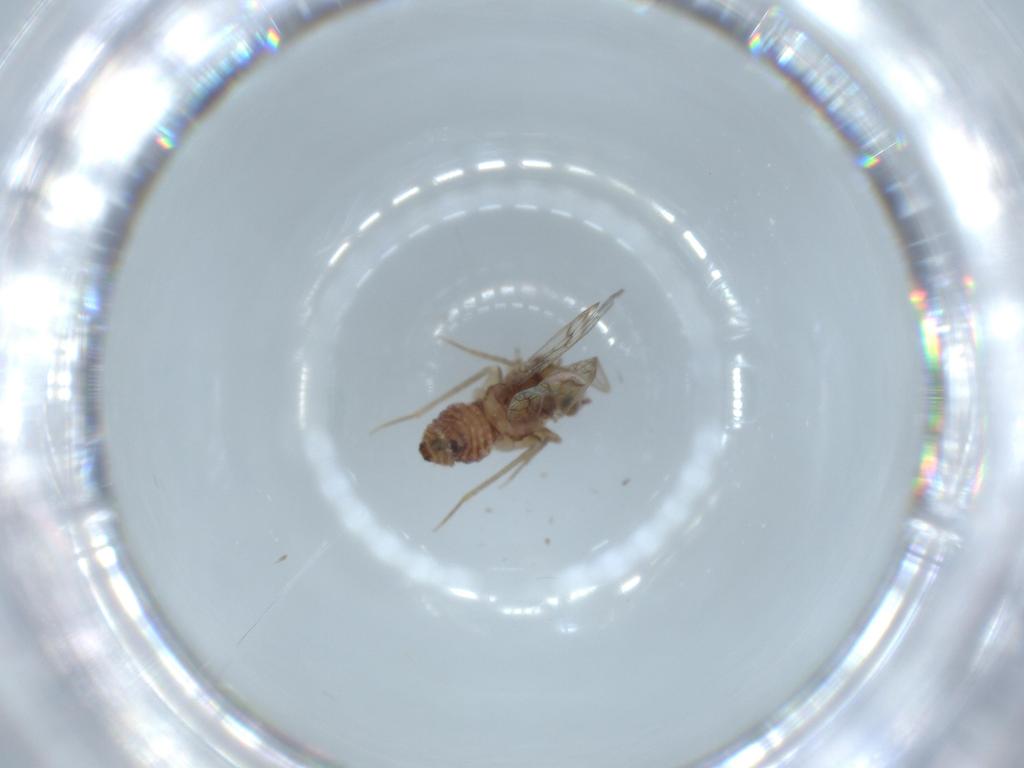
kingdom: Animalia
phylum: Arthropoda
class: Insecta
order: Psocodea
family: Lepidopsocidae
